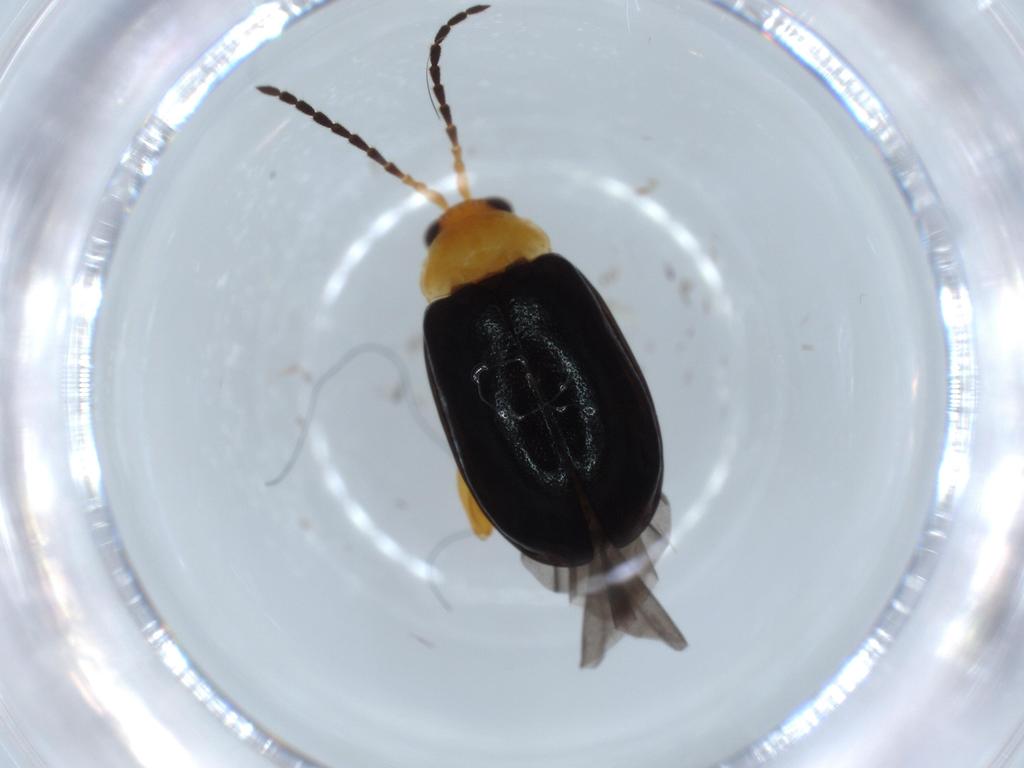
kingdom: Animalia
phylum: Arthropoda
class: Insecta
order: Coleoptera
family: Chrysomelidae
